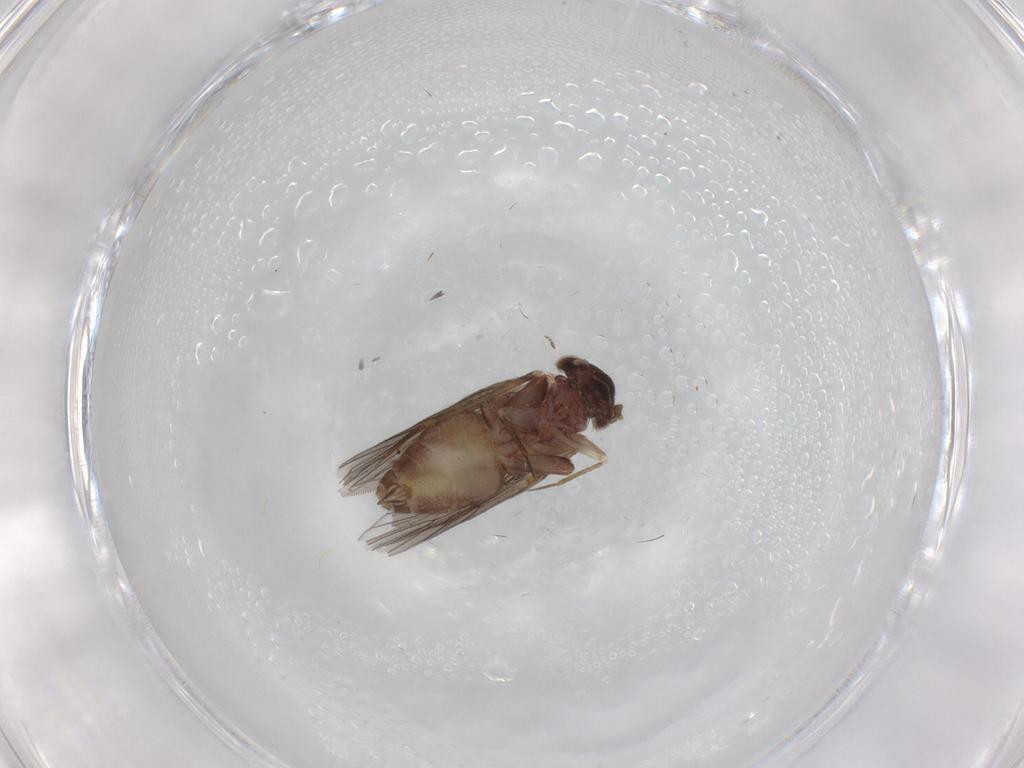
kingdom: Animalia
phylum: Arthropoda
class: Insecta
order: Psocodea
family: Lepidopsocidae
